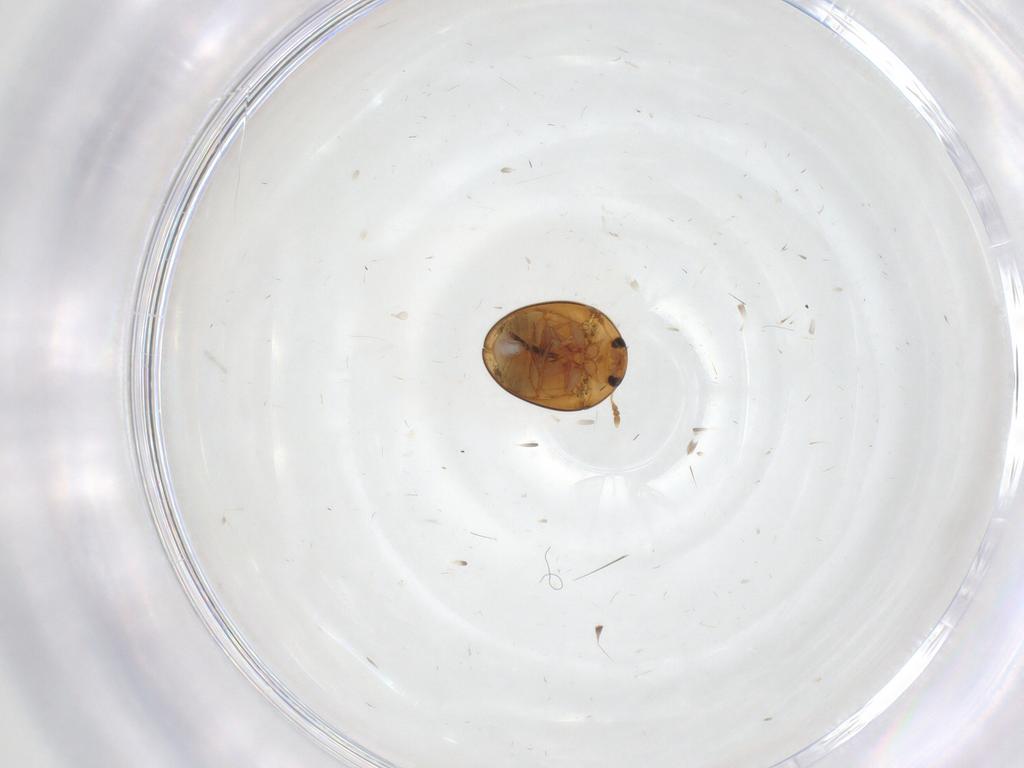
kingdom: Animalia
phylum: Arthropoda
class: Insecta
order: Coleoptera
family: Phalacridae
